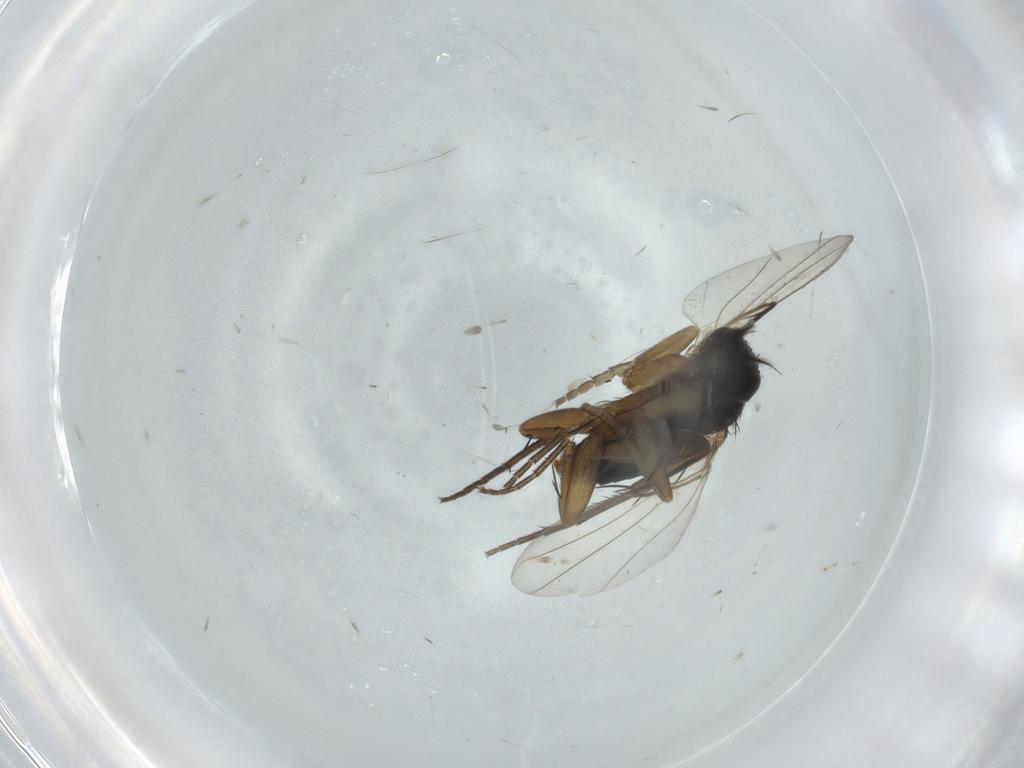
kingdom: Animalia
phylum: Arthropoda
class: Insecta
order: Diptera
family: Phoridae
